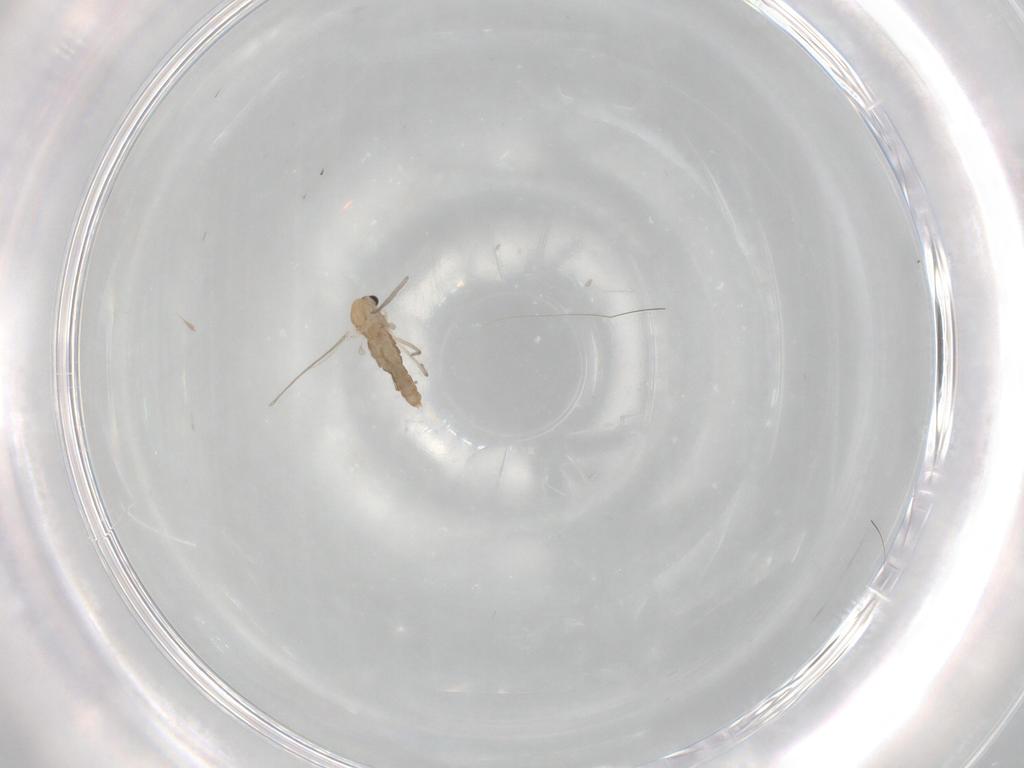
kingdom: Animalia
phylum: Arthropoda
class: Insecta
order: Diptera
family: Chironomidae
